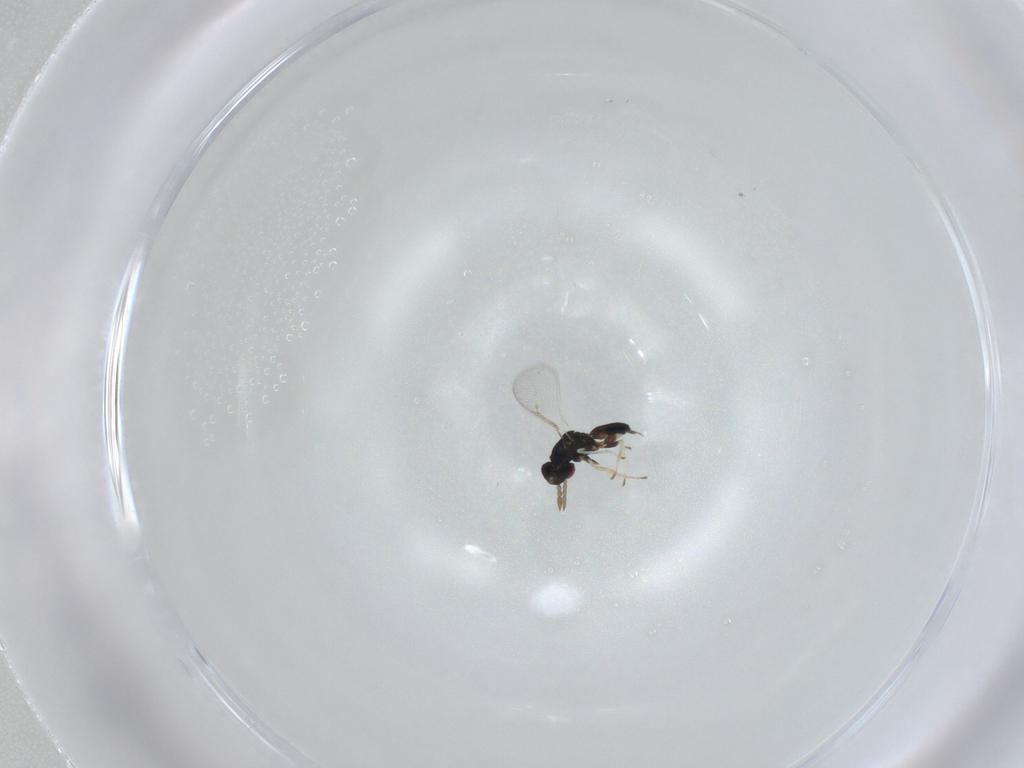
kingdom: Animalia
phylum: Arthropoda
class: Insecta
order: Hymenoptera
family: Eulophidae
